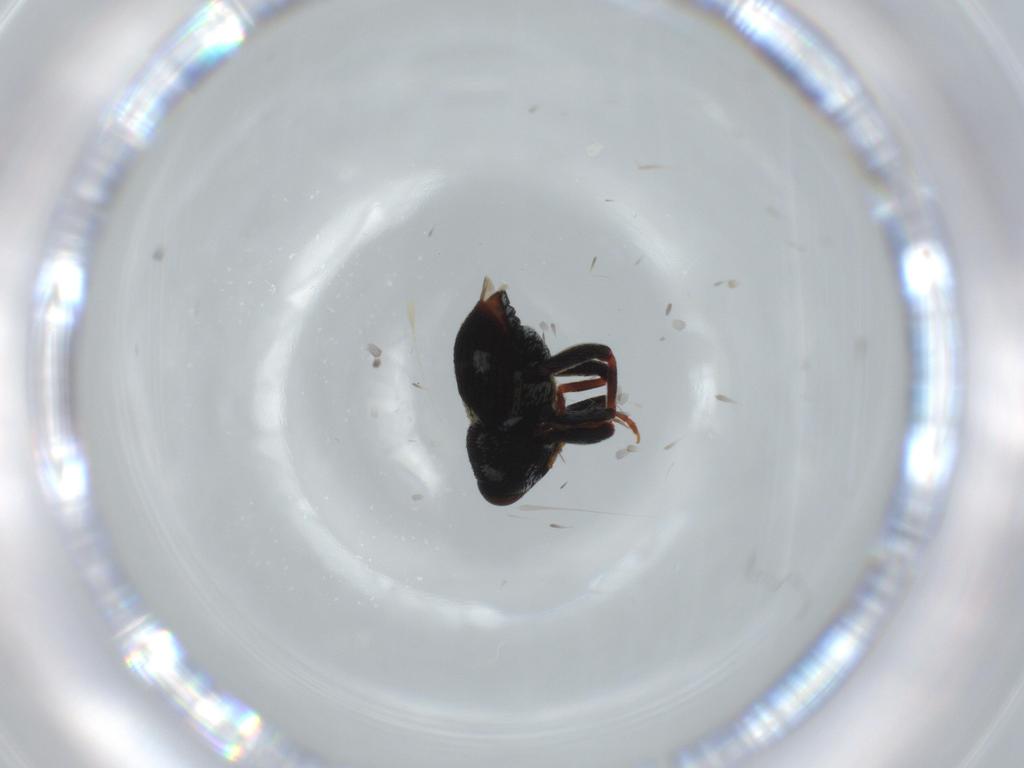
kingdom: Animalia
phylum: Arthropoda
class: Insecta
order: Coleoptera
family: Curculionidae
